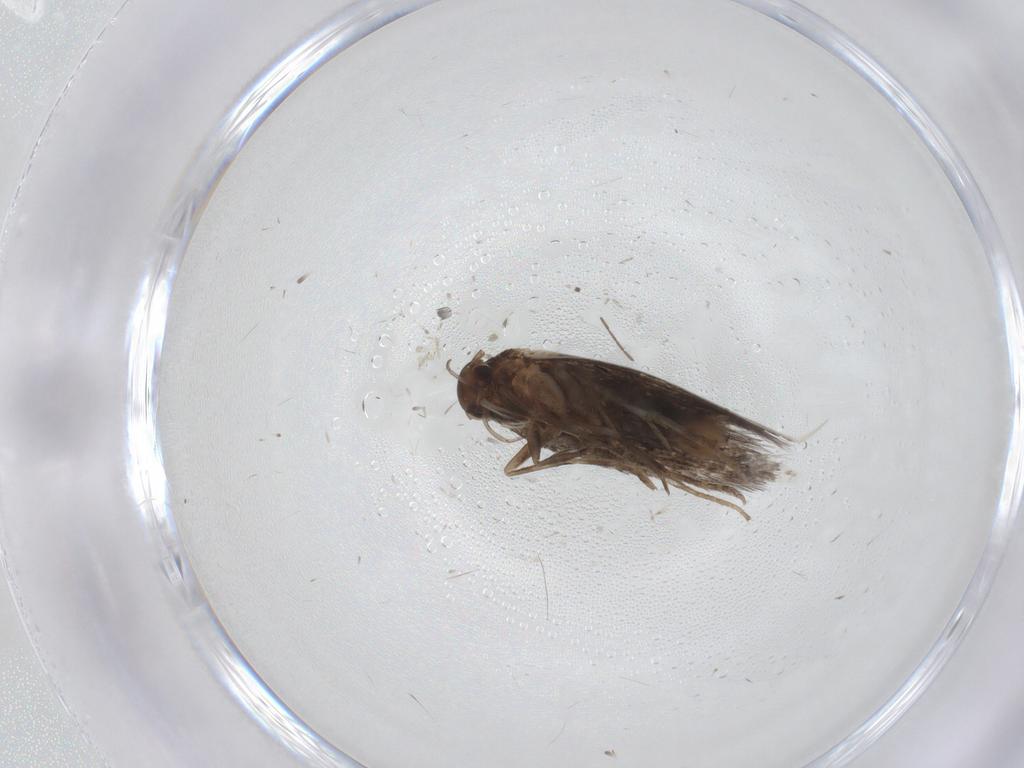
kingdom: Animalia
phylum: Arthropoda
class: Insecta
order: Lepidoptera
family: Elachistidae
